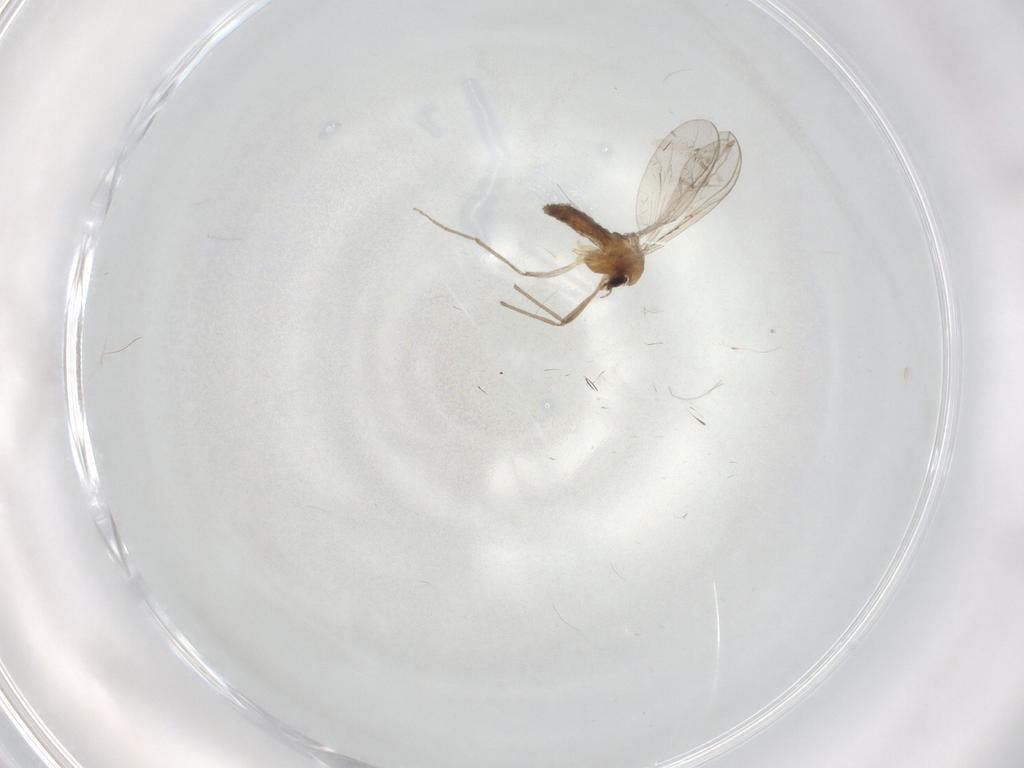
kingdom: Animalia
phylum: Arthropoda
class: Insecta
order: Diptera
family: Chironomidae
